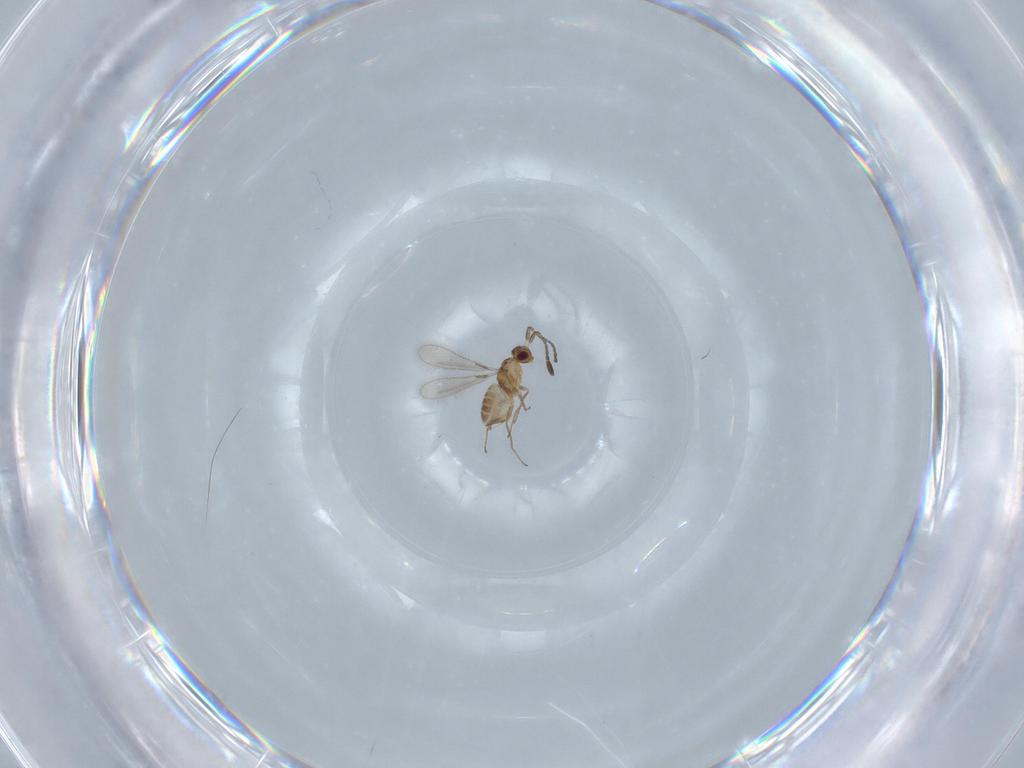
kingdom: Animalia
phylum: Arthropoda
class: Insecta
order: Hymenoptera
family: Mymaridae
